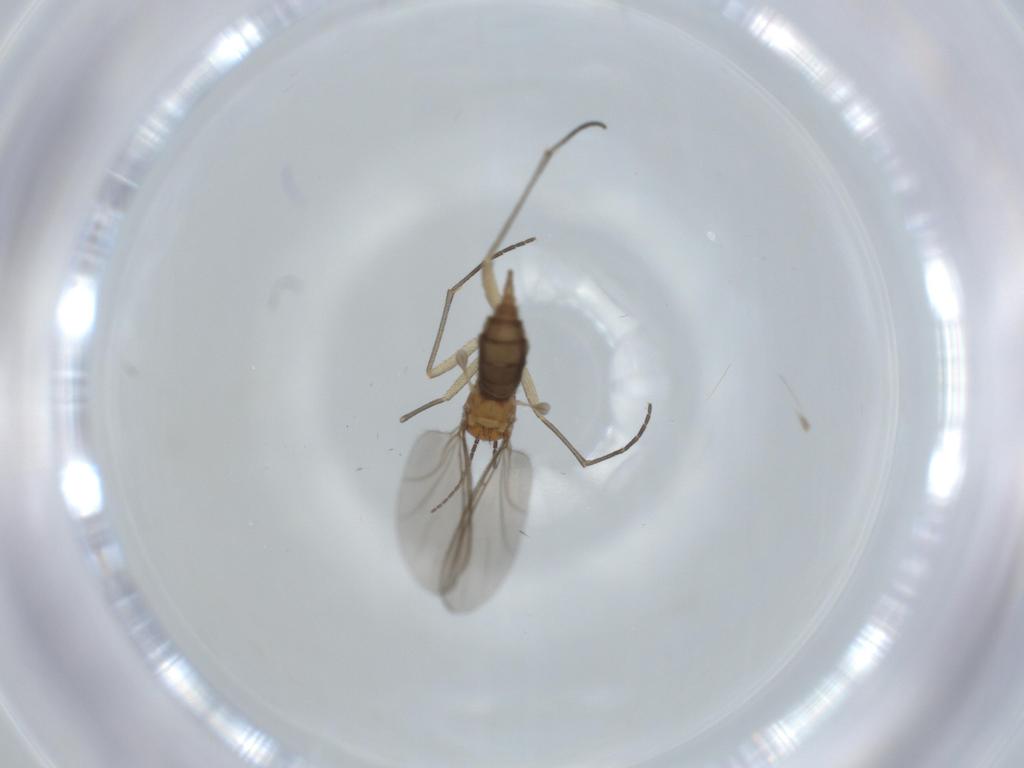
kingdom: Animalia
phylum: Arthropoda
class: Insecta
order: Diptera
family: Sciaridae
